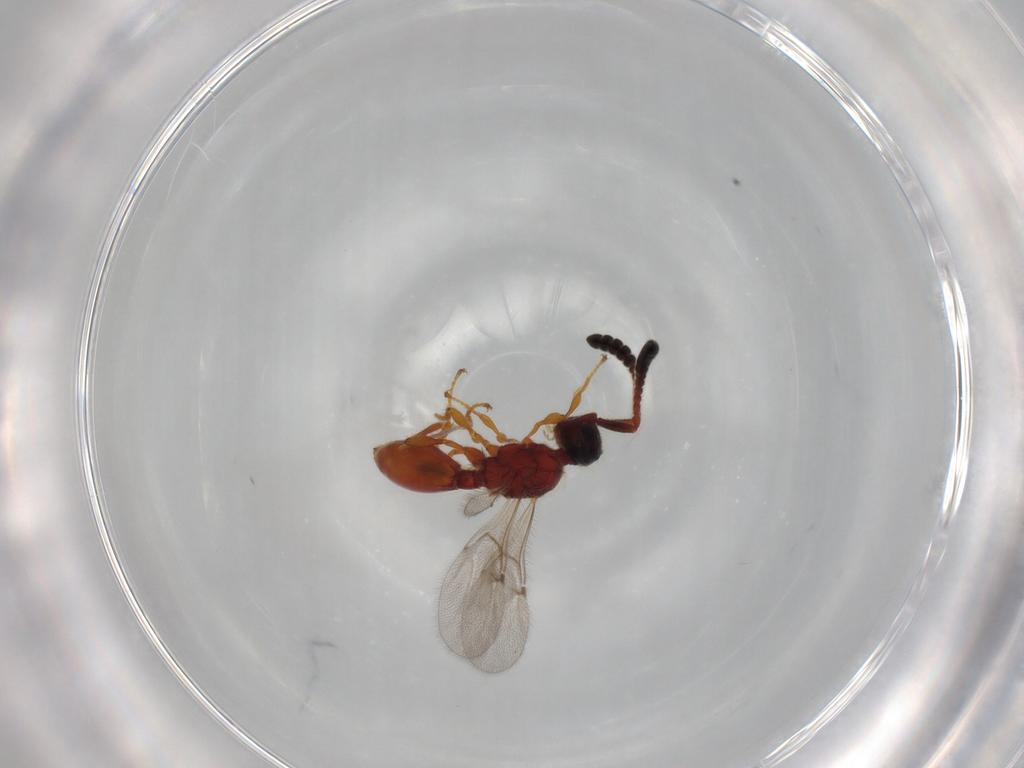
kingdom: Animalia
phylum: Arthropoda
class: Insecta
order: Hymenoptera
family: Diapriidae
